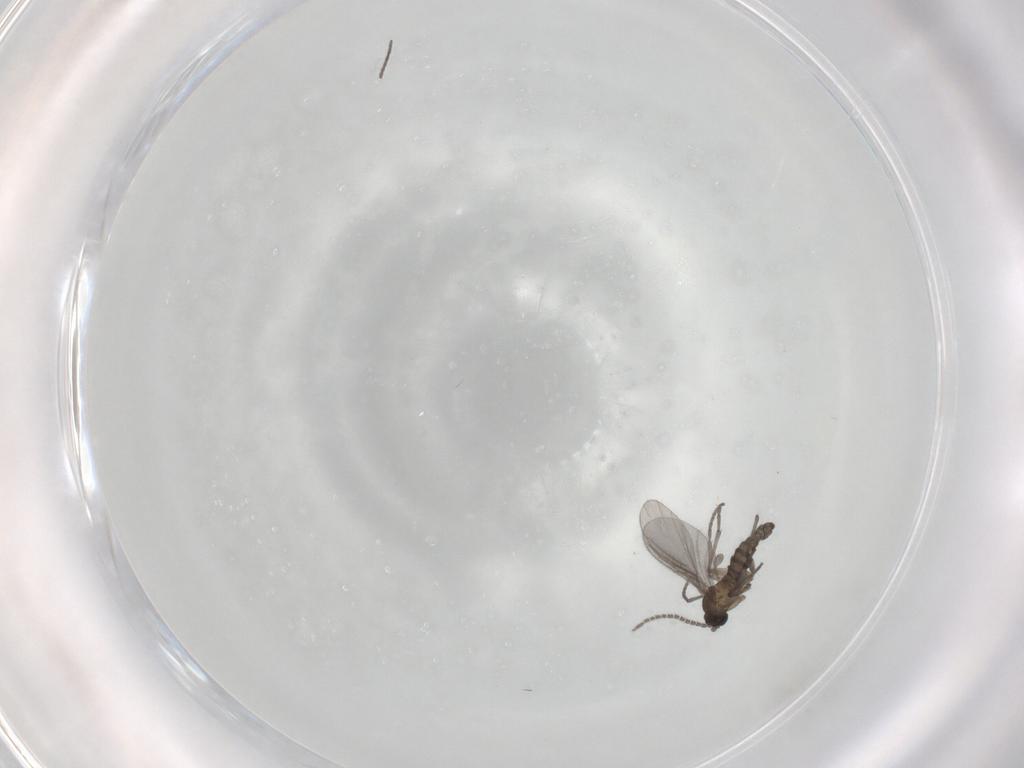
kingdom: Animalia
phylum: Arthropoda
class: Insecta
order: Diptera
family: Sciaridae
